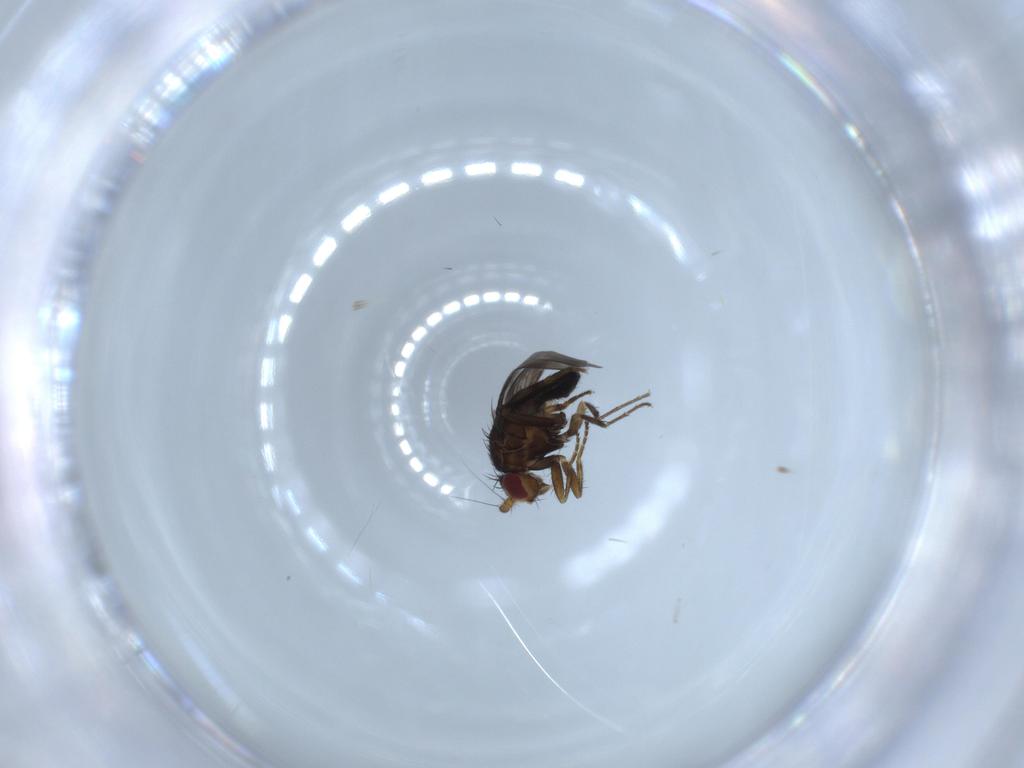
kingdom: Animalia
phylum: Arthropoda
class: Insecta
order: Diptera
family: Sphaeroceridae
